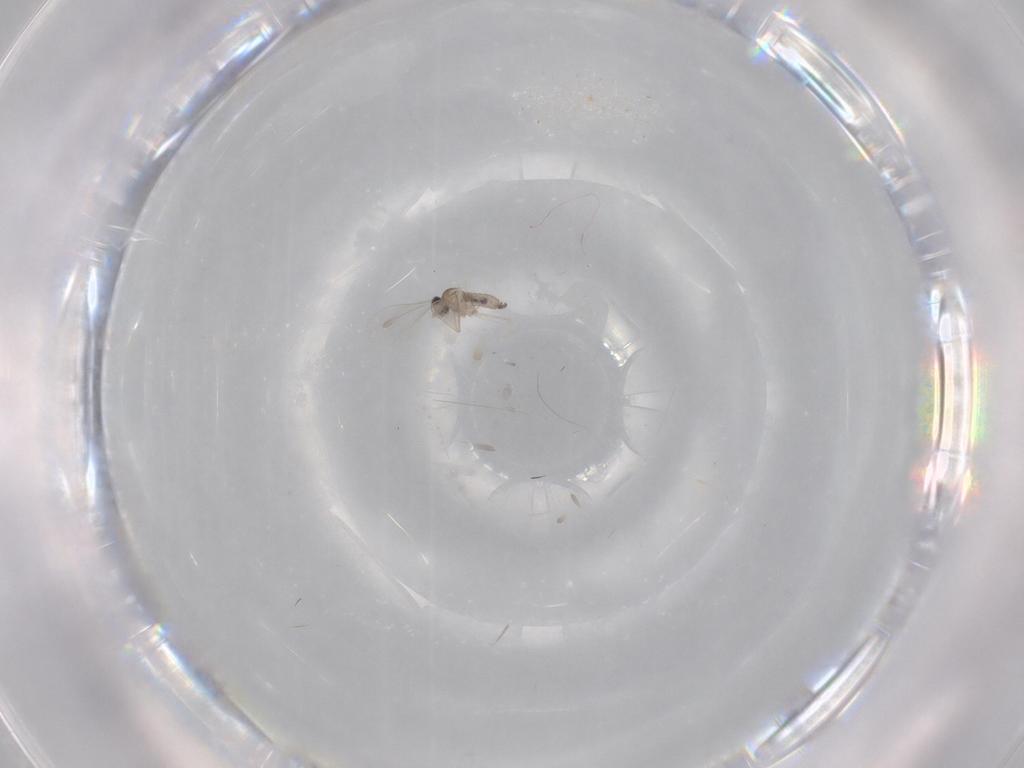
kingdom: Animalia
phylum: Arthropoda
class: Insecta
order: Diptera
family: Cecidomyiidae
